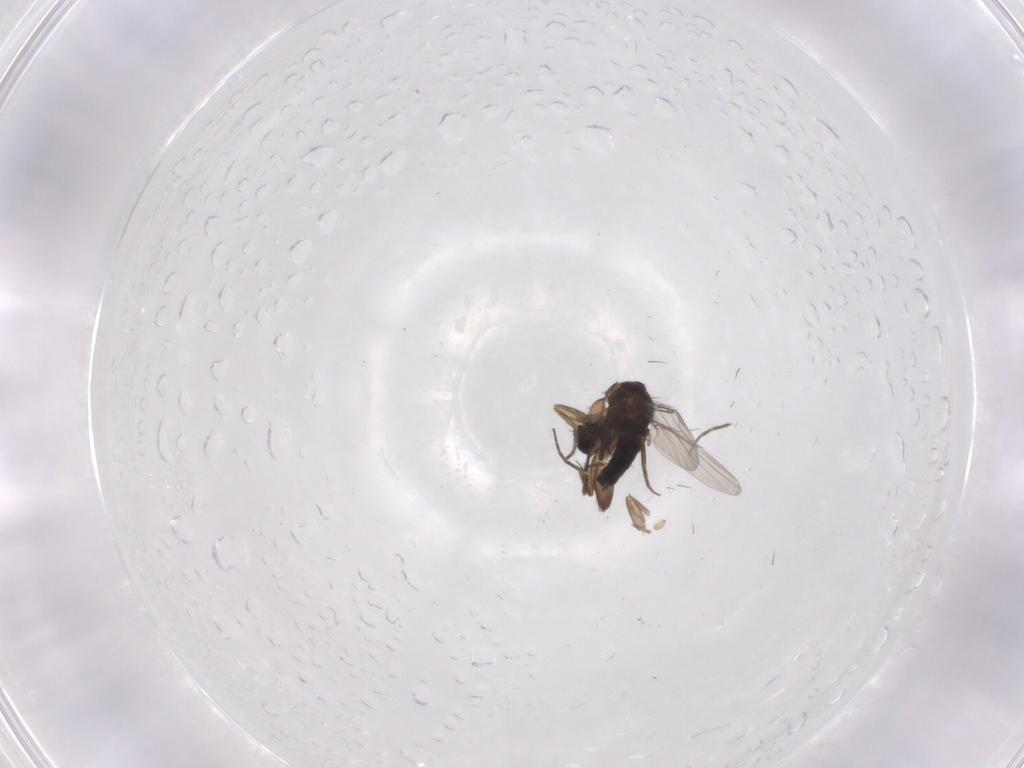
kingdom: Animalia
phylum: Arthropoda
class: Insecta
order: Diptera
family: Phoridae
